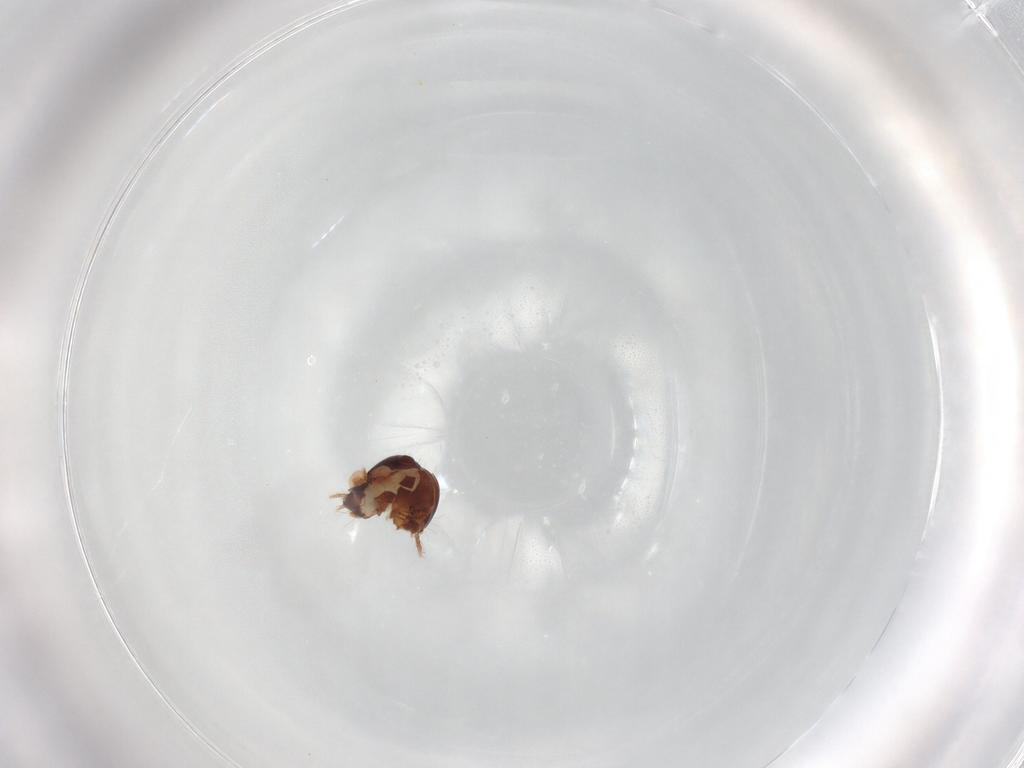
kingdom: Animalia
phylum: Arthropoda
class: Arachnida
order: Sarcoptiformes
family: Humerobatidae
